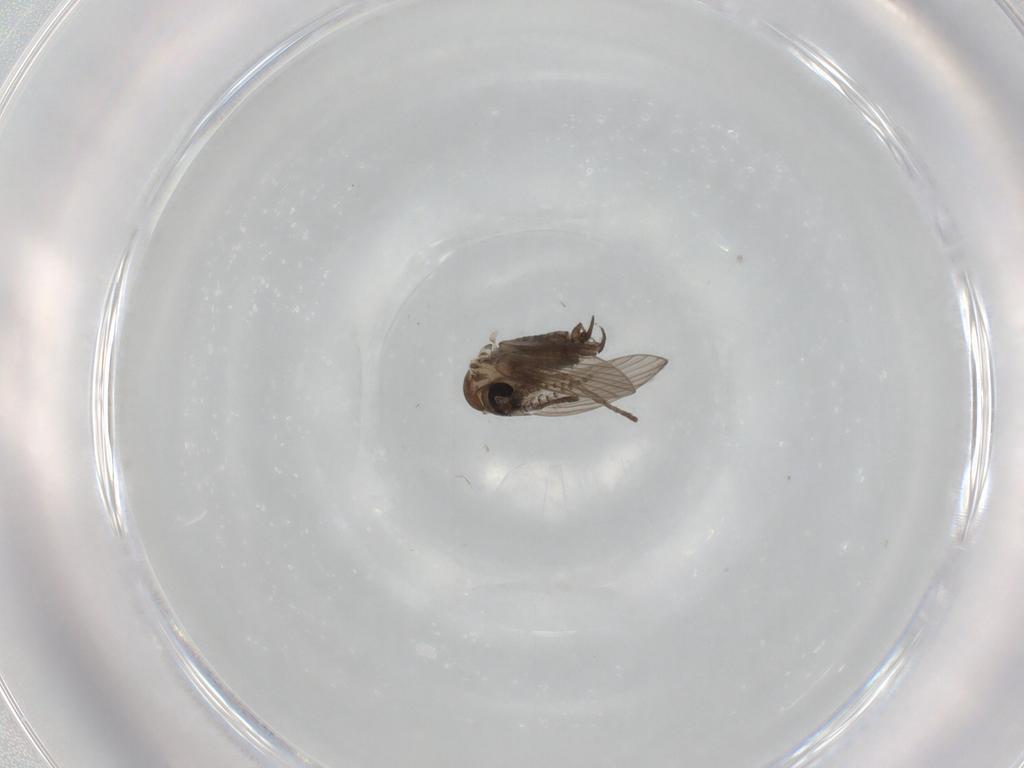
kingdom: Animalia
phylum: Arthropoda
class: Insecta
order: Diptera
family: Psychodidae
